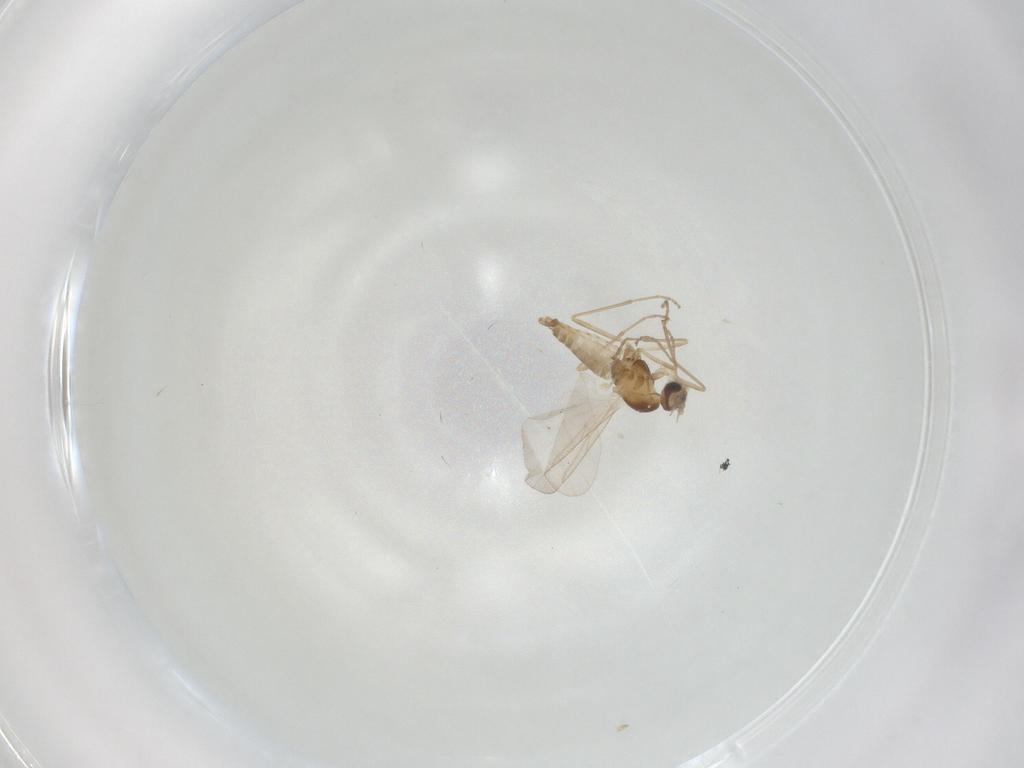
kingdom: Animalia
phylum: Arthropoda
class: Insecta
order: Diptera
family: Cecidomyiidae
